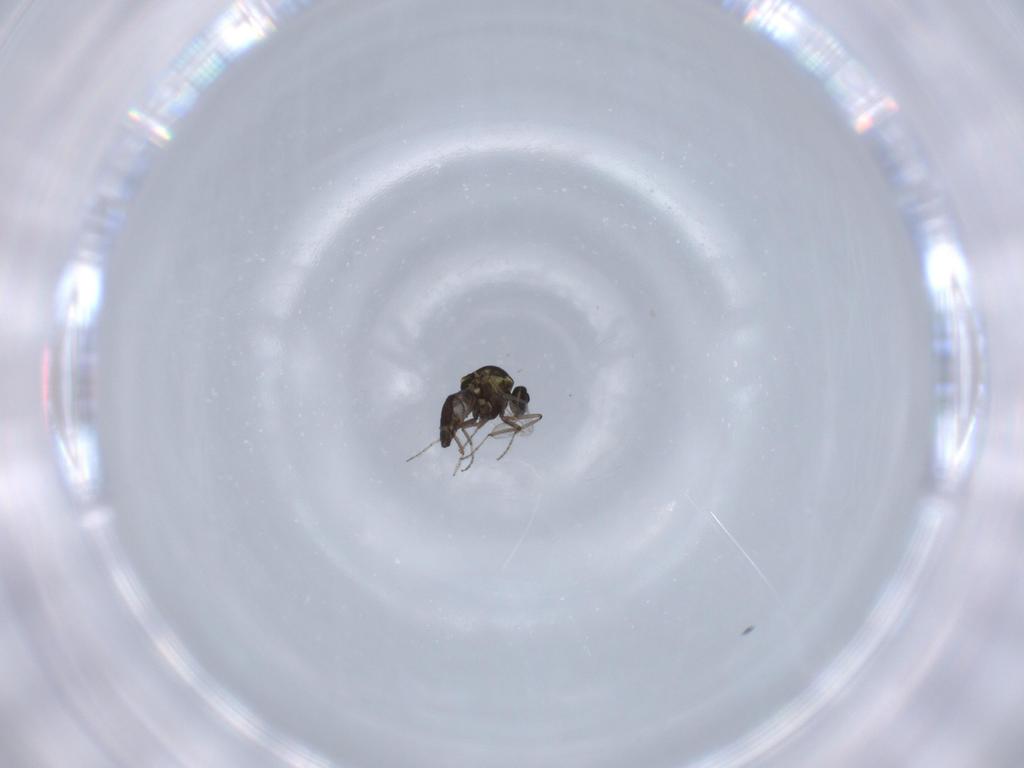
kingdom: Animalia
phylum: Arthropoda
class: Insecta
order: Diptera
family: Ceratopogonidae
